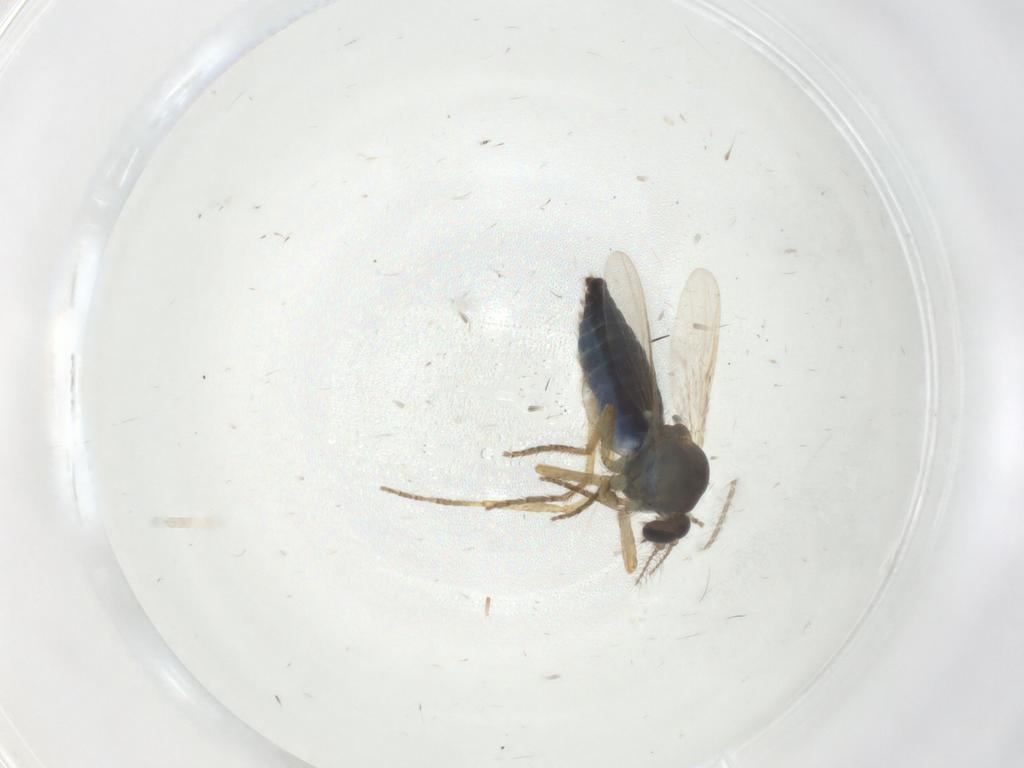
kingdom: Animalia
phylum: Arthropoda
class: Insecta
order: Diptera
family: Ceratopogonidae
